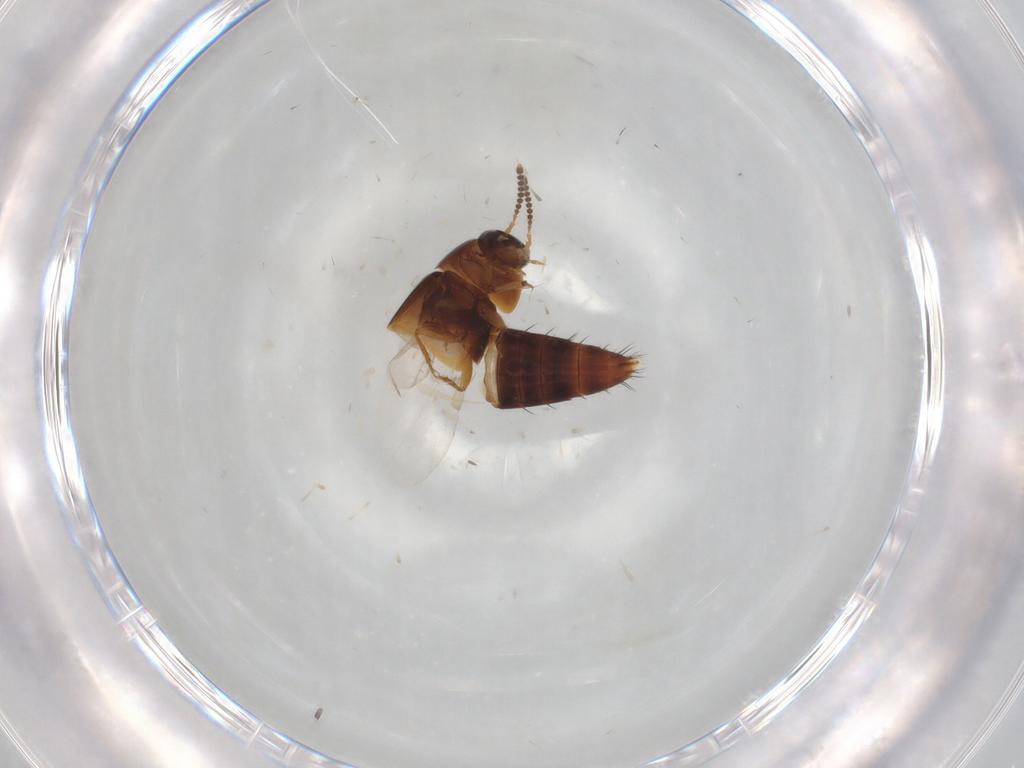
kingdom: Animalia
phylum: Arthropoda
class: Insecta
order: Coleoptera
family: Staphylinidae
